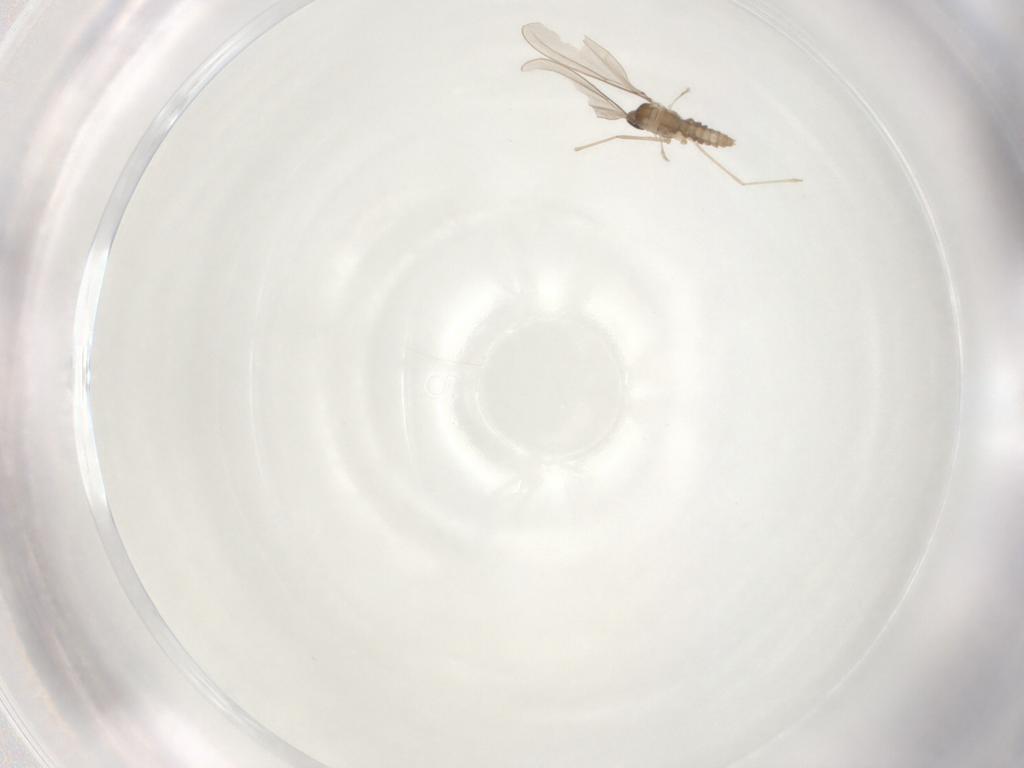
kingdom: Animalia
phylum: Arthropoda
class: Insecta
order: Diptera
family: Cecidomyiidae
